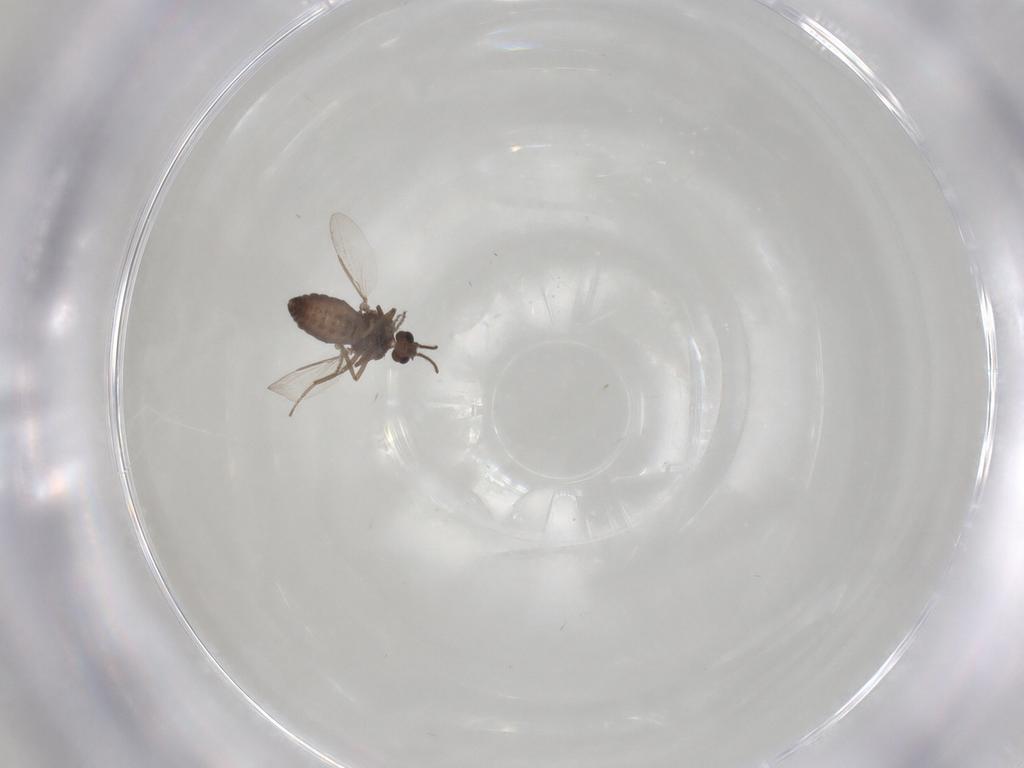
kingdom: Animalia
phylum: Arthropoda
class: Insecta
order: Diptera
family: Ceratopogonidae
